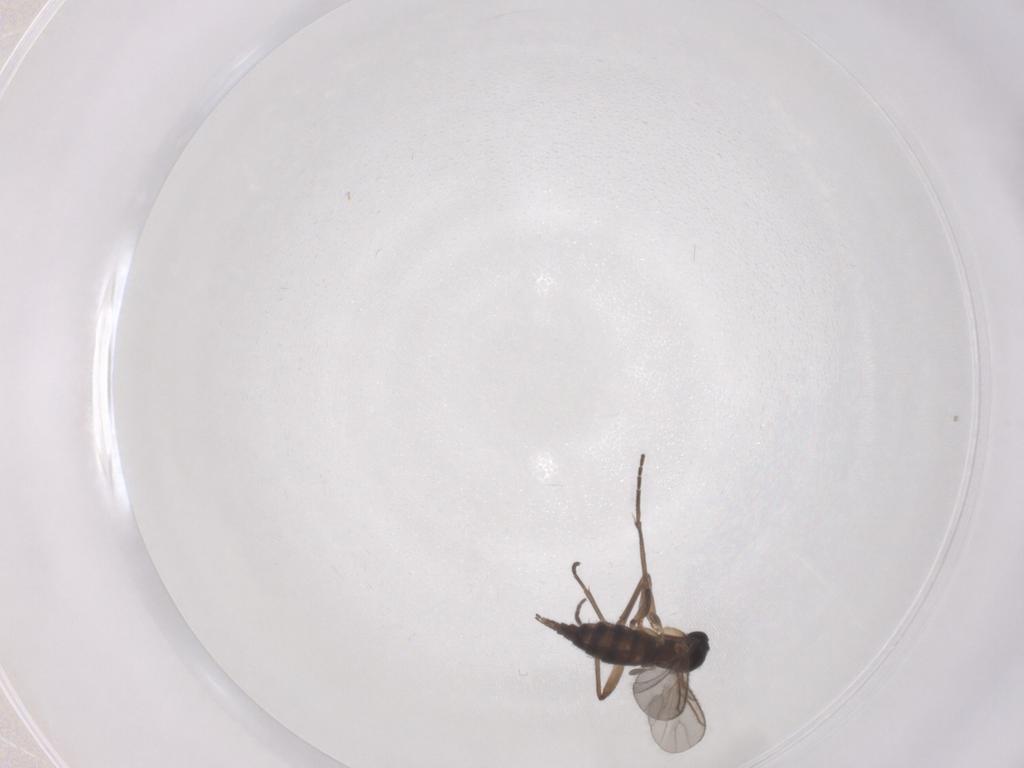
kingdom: Animalia
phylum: Arthropoda
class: Insecta
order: Diptera
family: Sciaridae
